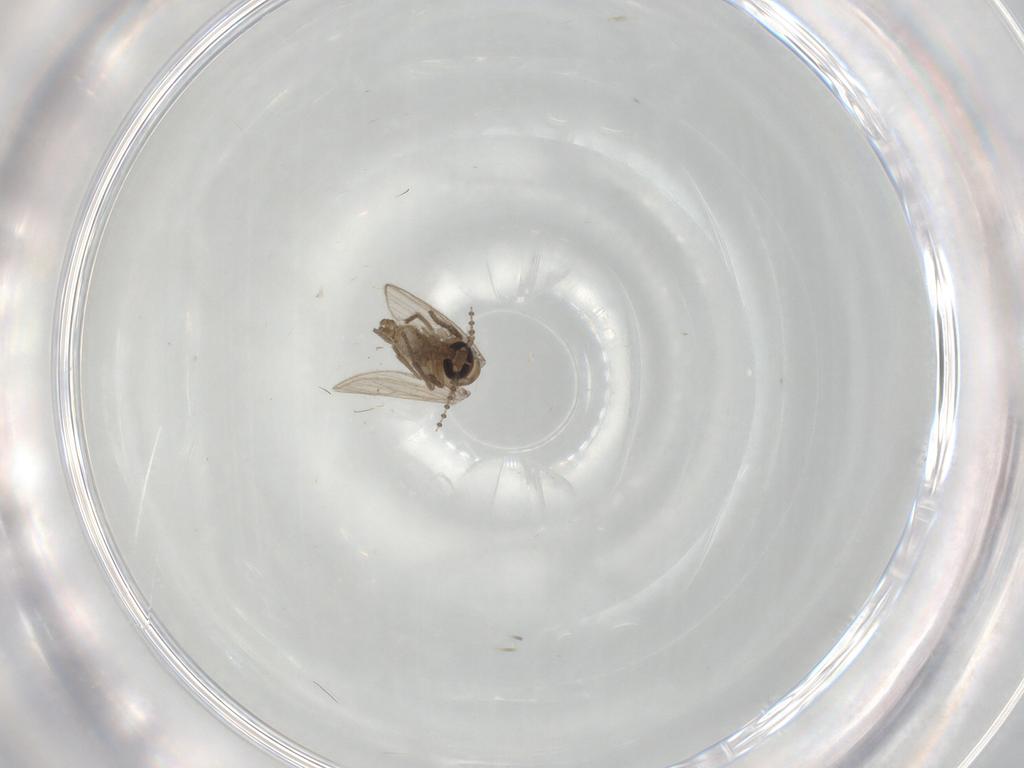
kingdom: Animalia
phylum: Arthropoda
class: Insecta
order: Diptera
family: Psychodidae
